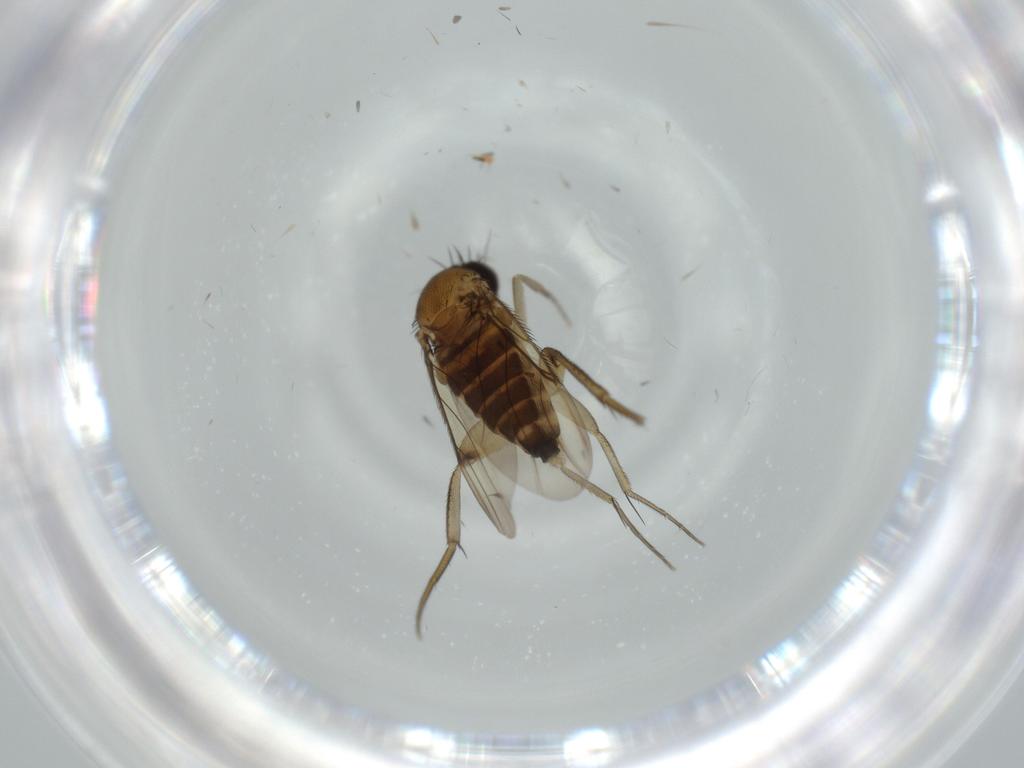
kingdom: Animalia
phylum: Arthropoda
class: Insecta
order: Diptera
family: Phoridae
